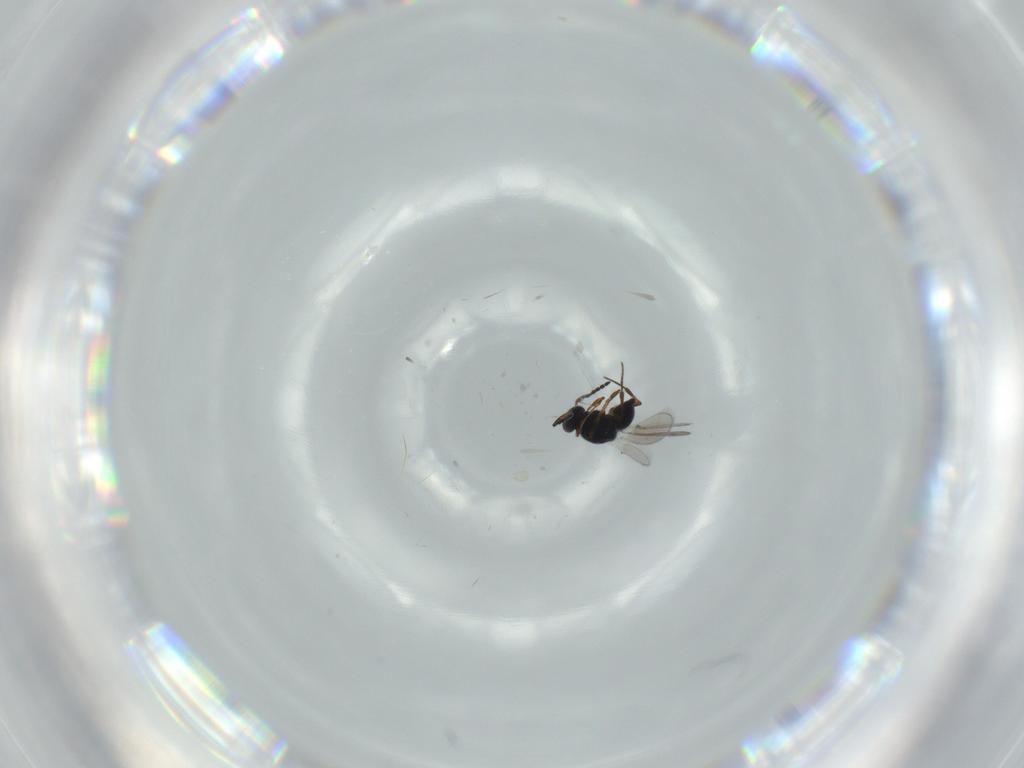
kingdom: Animalia
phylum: Arthropoda
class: Insecta
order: Hymenoptera
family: Platygastridae
